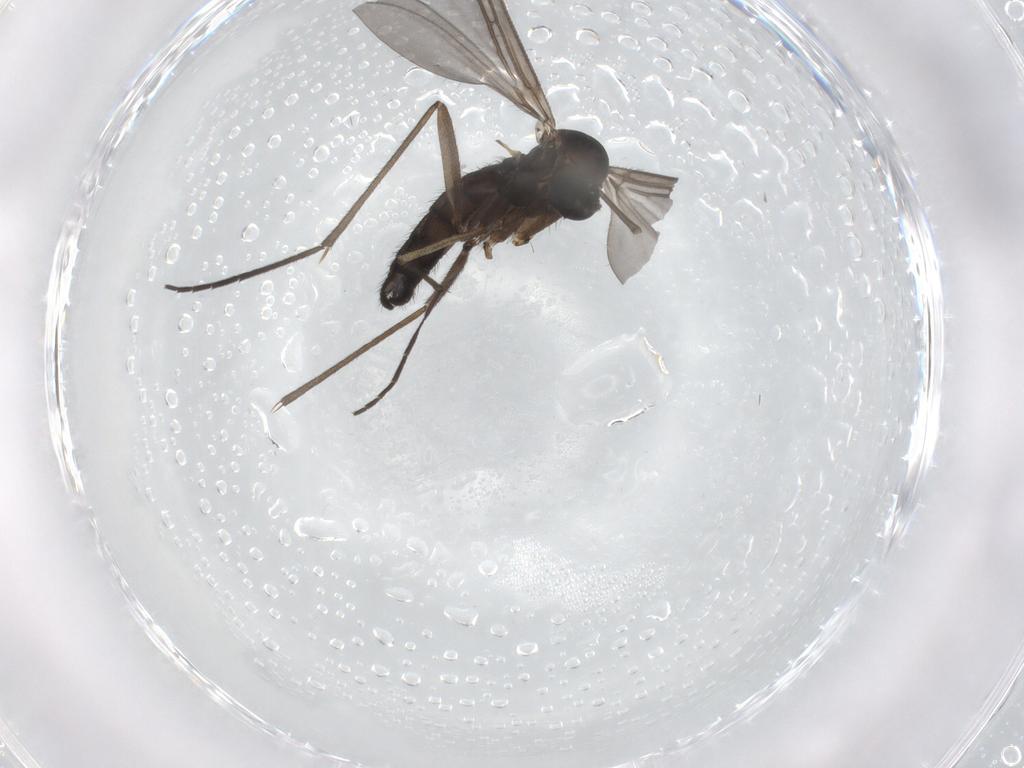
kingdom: Animalia
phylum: Arthropoda
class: Insecta
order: Diptera
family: Sciaridae
